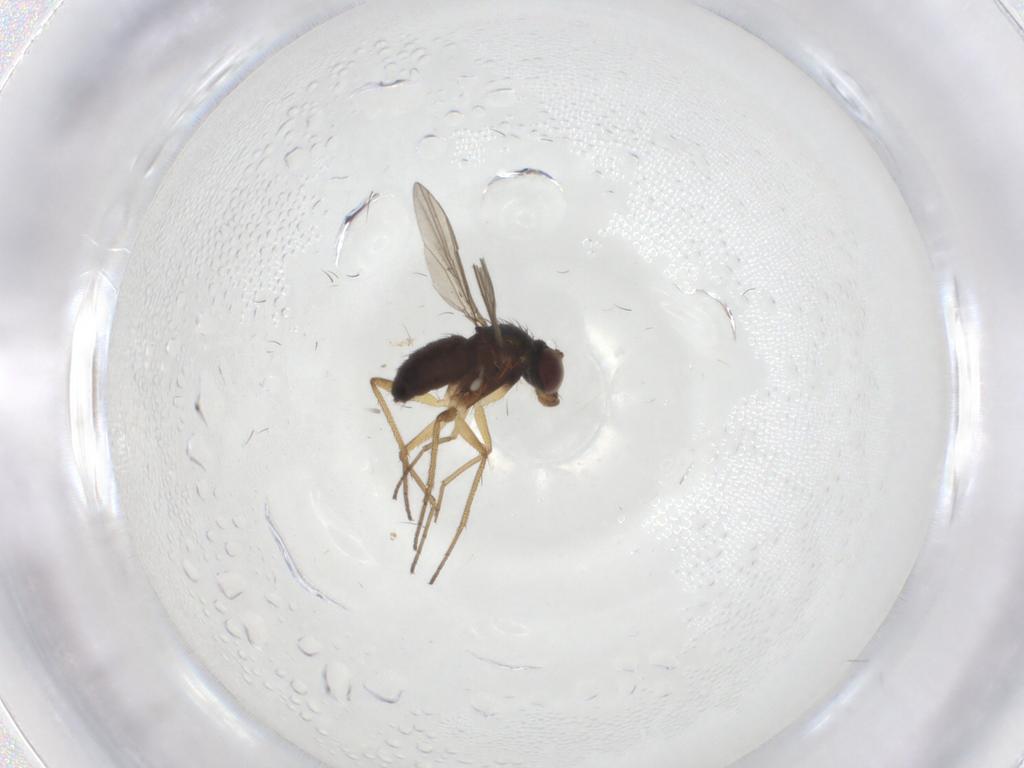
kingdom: Animalia
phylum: Arthropoda
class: Insecta
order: Diptera
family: Dolichopodidae
